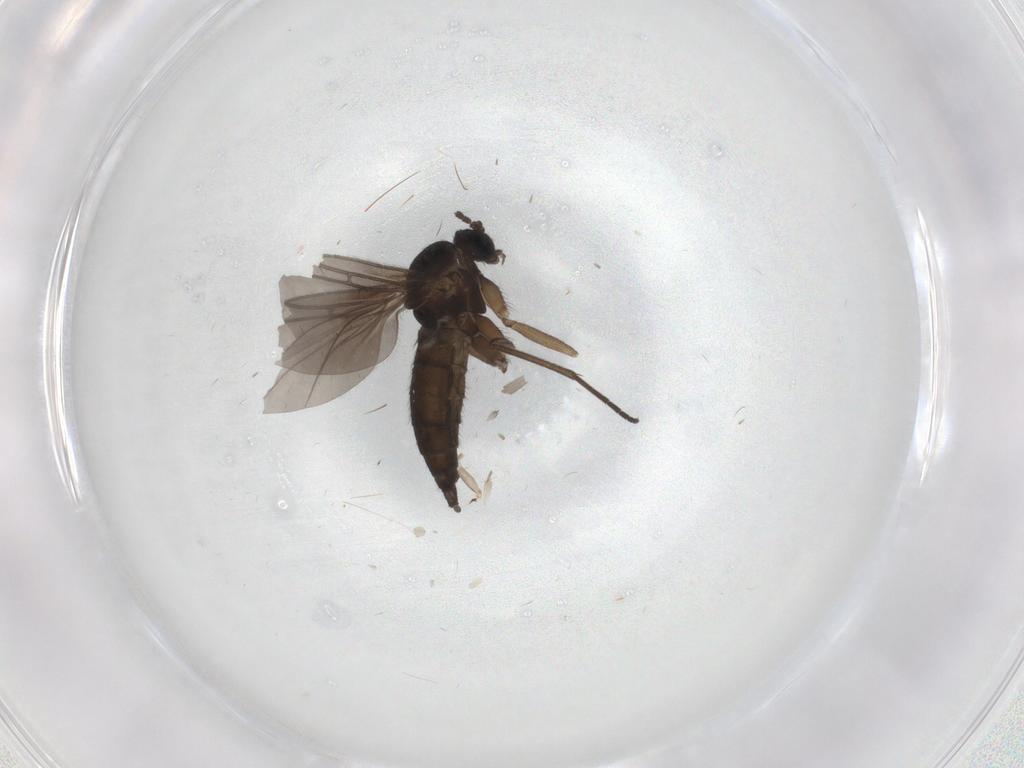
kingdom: Animalia
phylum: Arthropoda
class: Insecta
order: Diptera
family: Sciaridae
